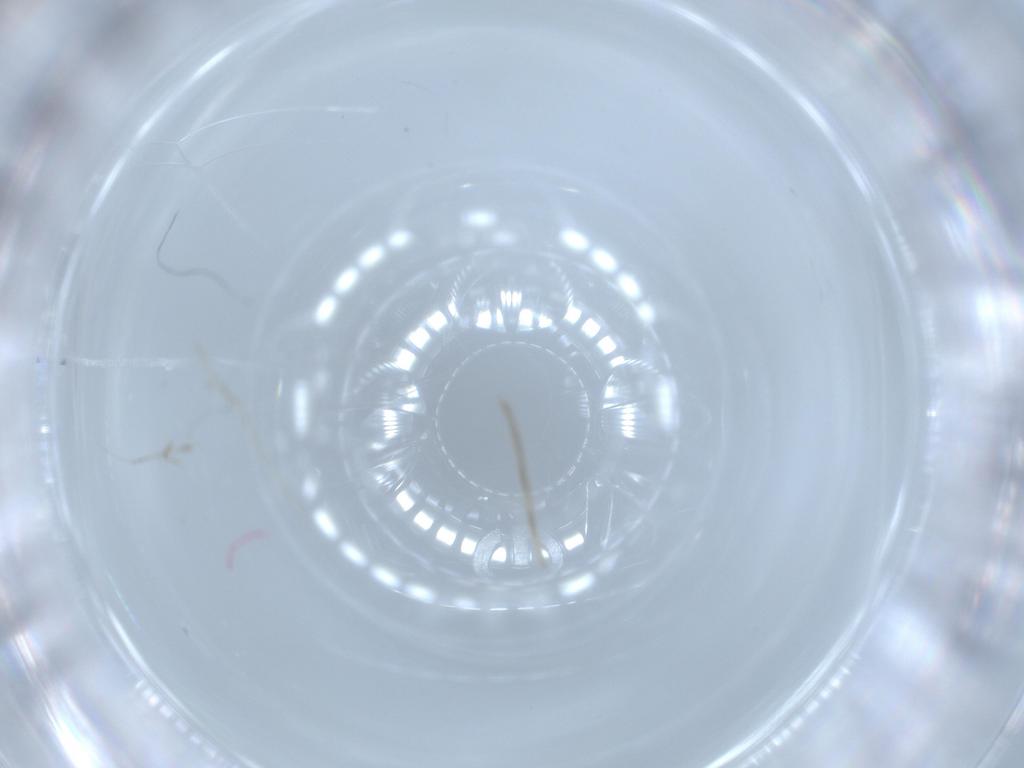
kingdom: Animalia
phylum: Arthropoda
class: Insecta
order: Diptera
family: Cecidomyiidae
